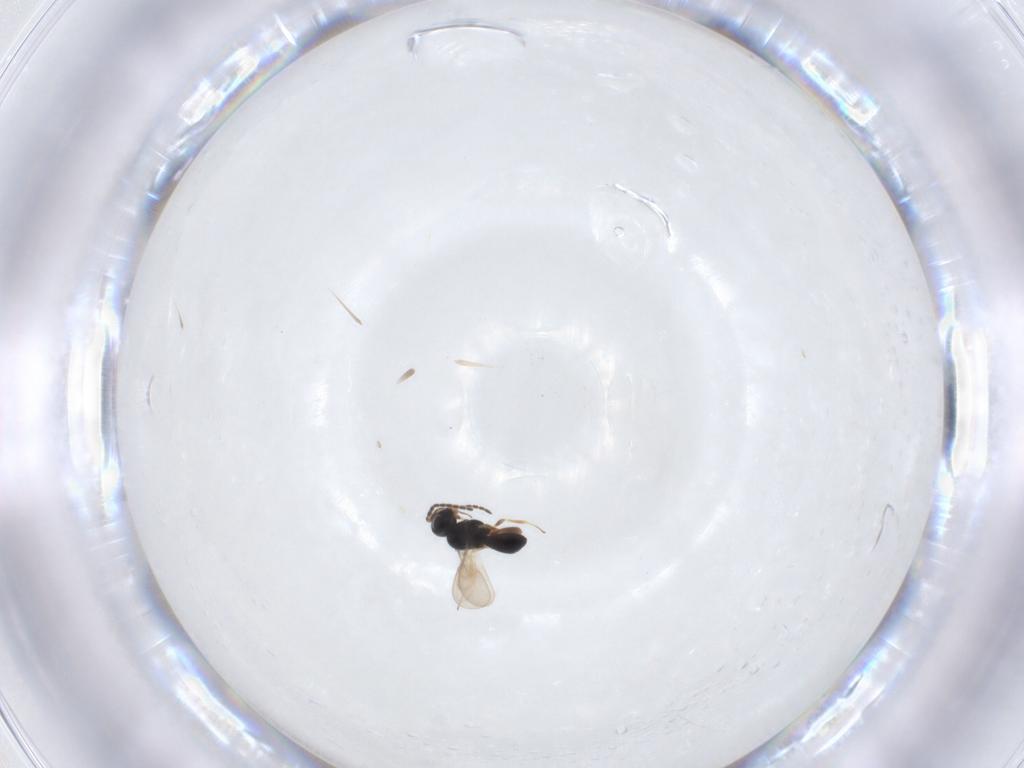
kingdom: Animalia
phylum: Arthropoda
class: Insecta
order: Hymenoptera
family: Scelionidae
